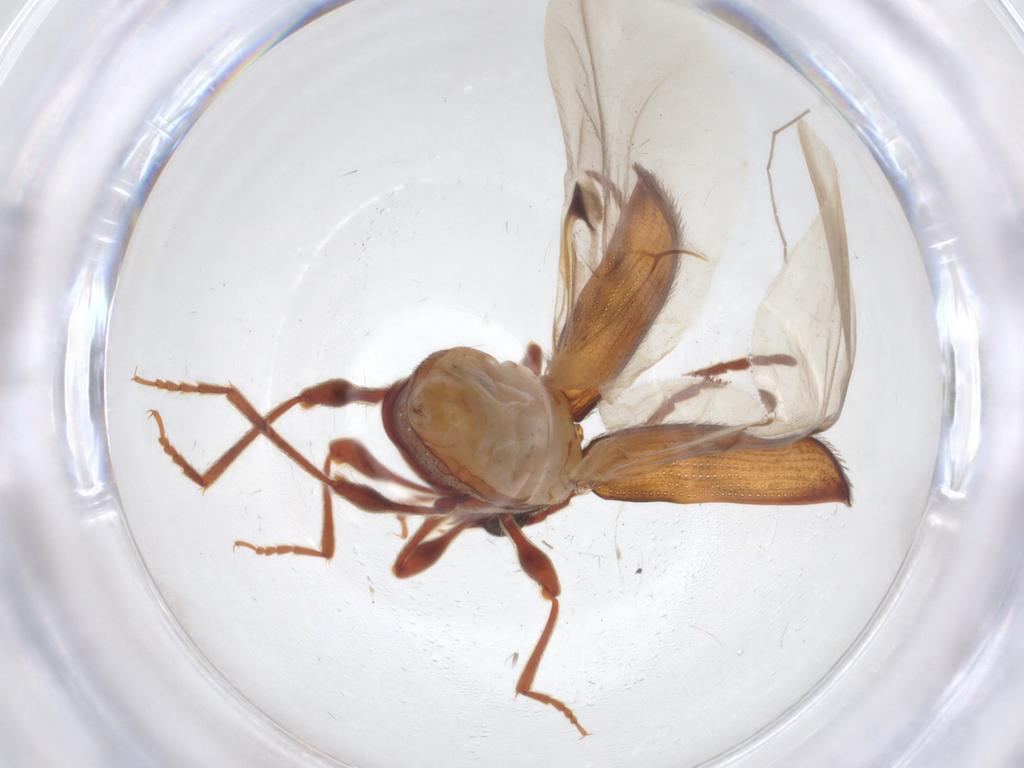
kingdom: Animalia
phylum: Arthropoda
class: Insecta
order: Coleoptera
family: Ptinidae
